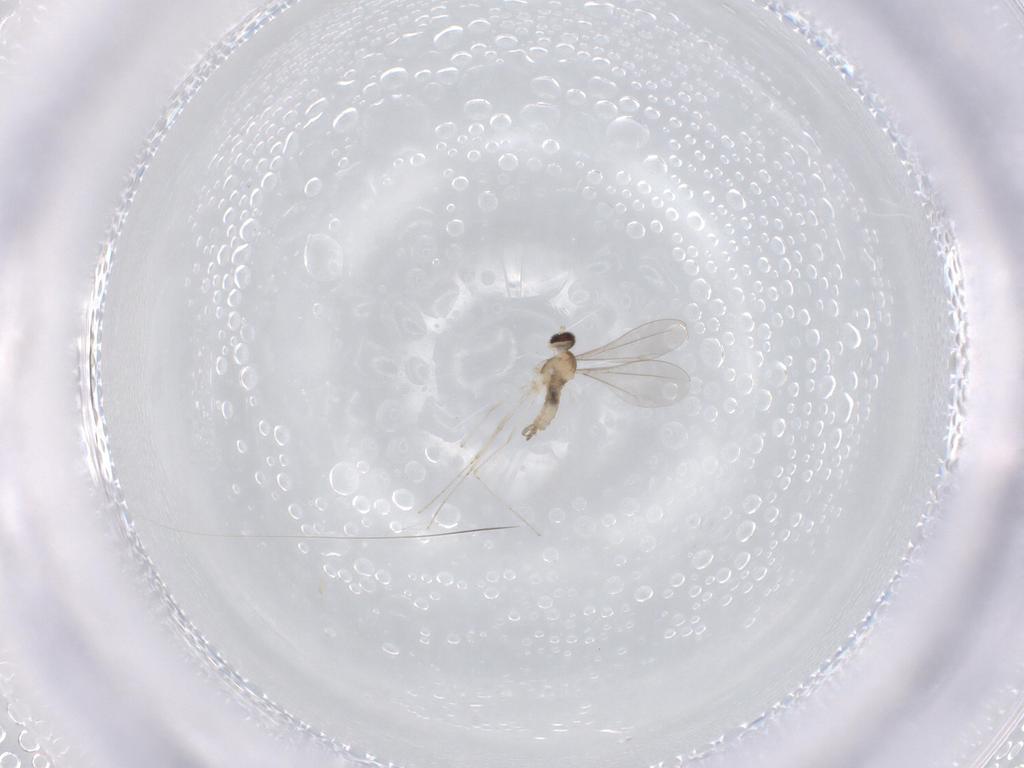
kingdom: Animalia
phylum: Arthropoda
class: Insecta
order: Diptera
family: Cecidomyiidae
